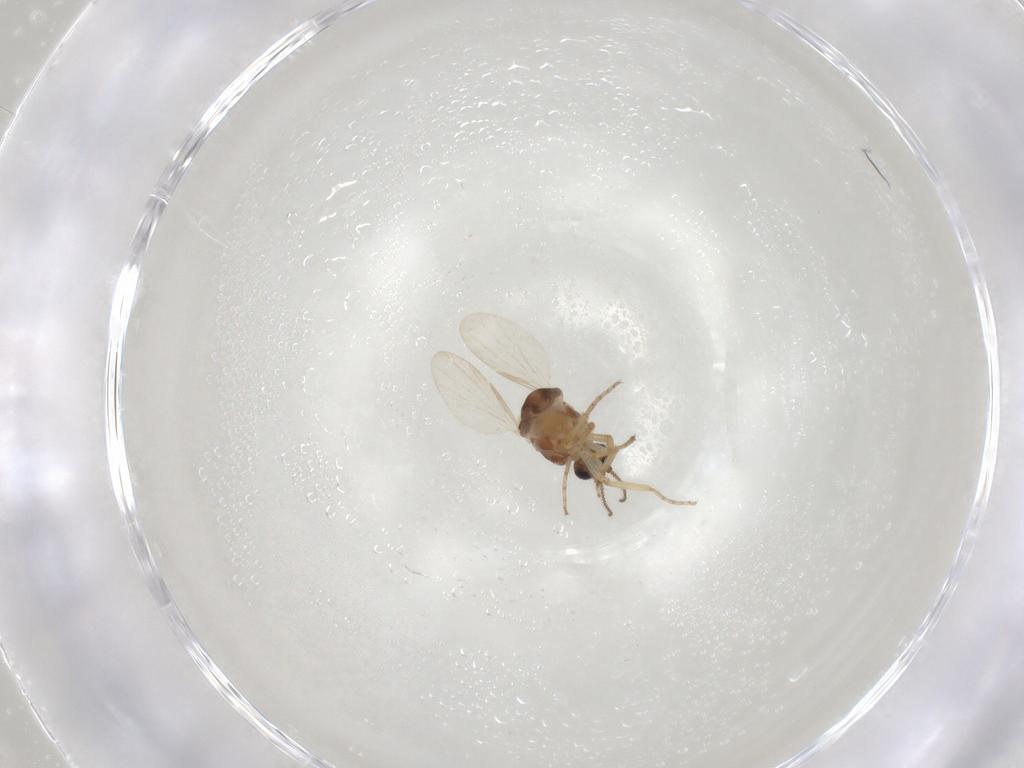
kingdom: Animalia
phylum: Arthropoda
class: Insecta
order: Diptera
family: Ceratopogonidae
